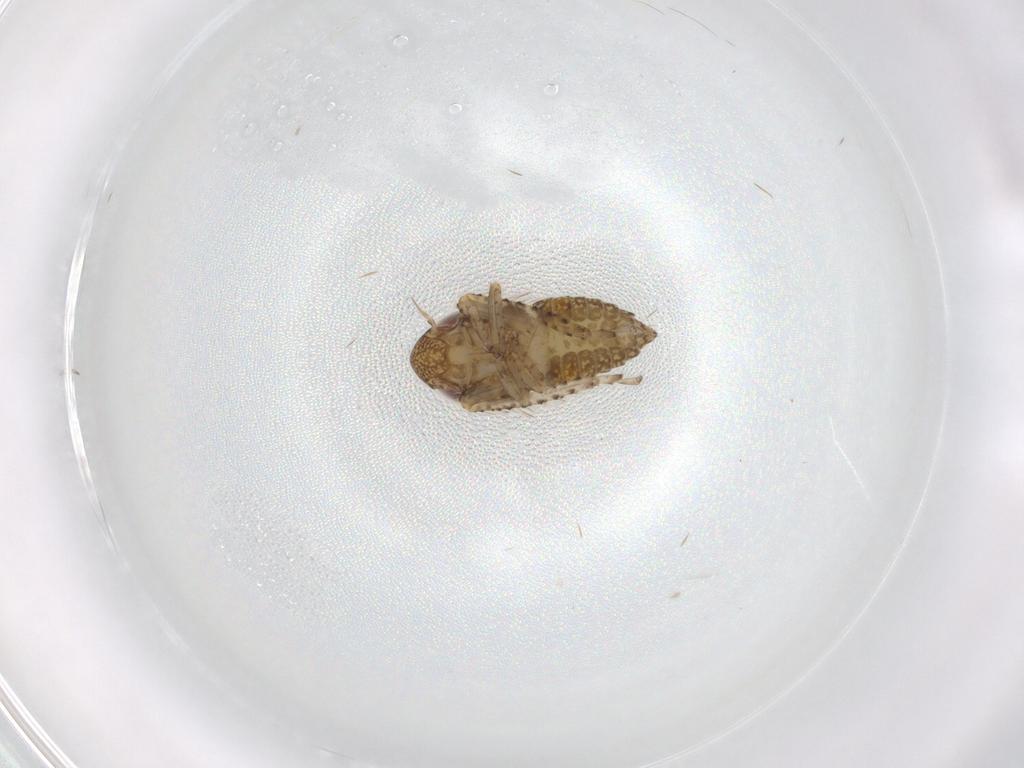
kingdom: Animalia
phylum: Arthropoda
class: Insecta
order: Hemiptera
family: Cicadellidae
